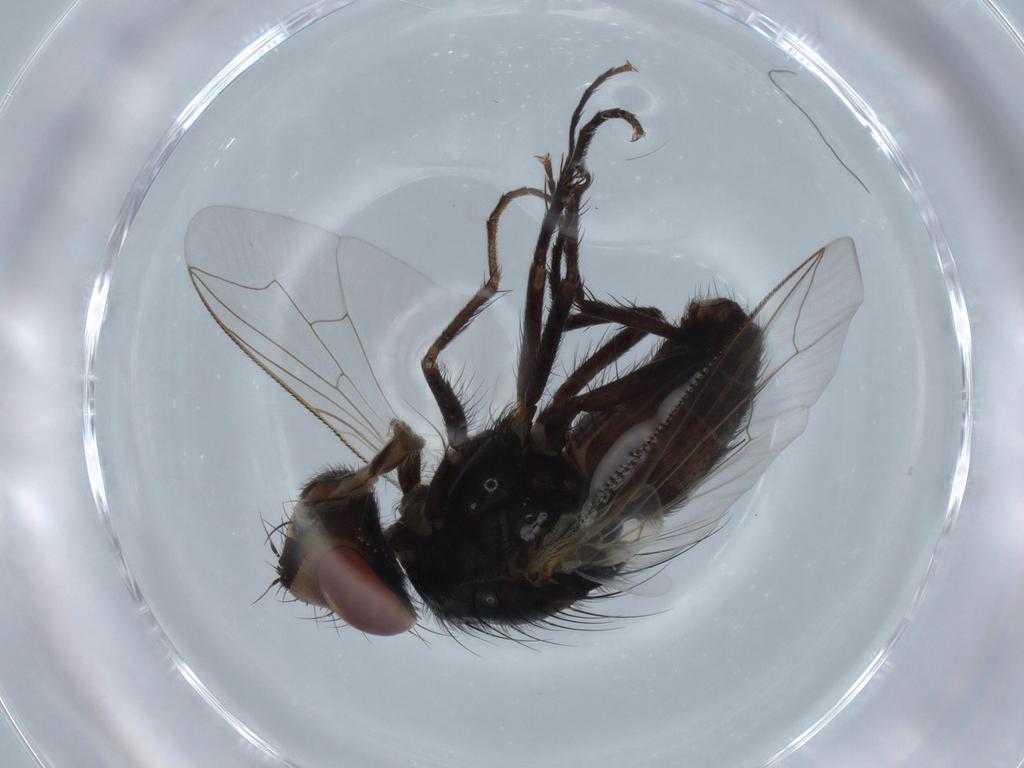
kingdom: Animalia
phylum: Arthropoda
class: Insecta
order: Diptera
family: Sarcophagidae
